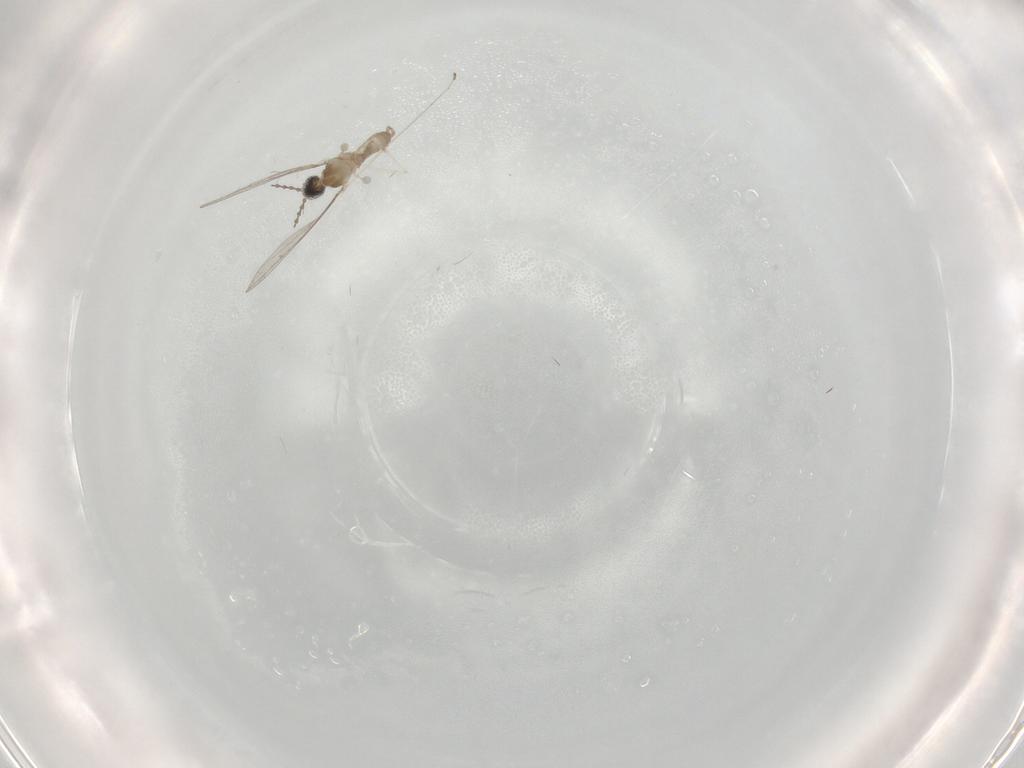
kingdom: Animalia
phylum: Arthropoda
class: Insecta
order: Diptera
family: Cecidomyiidae
